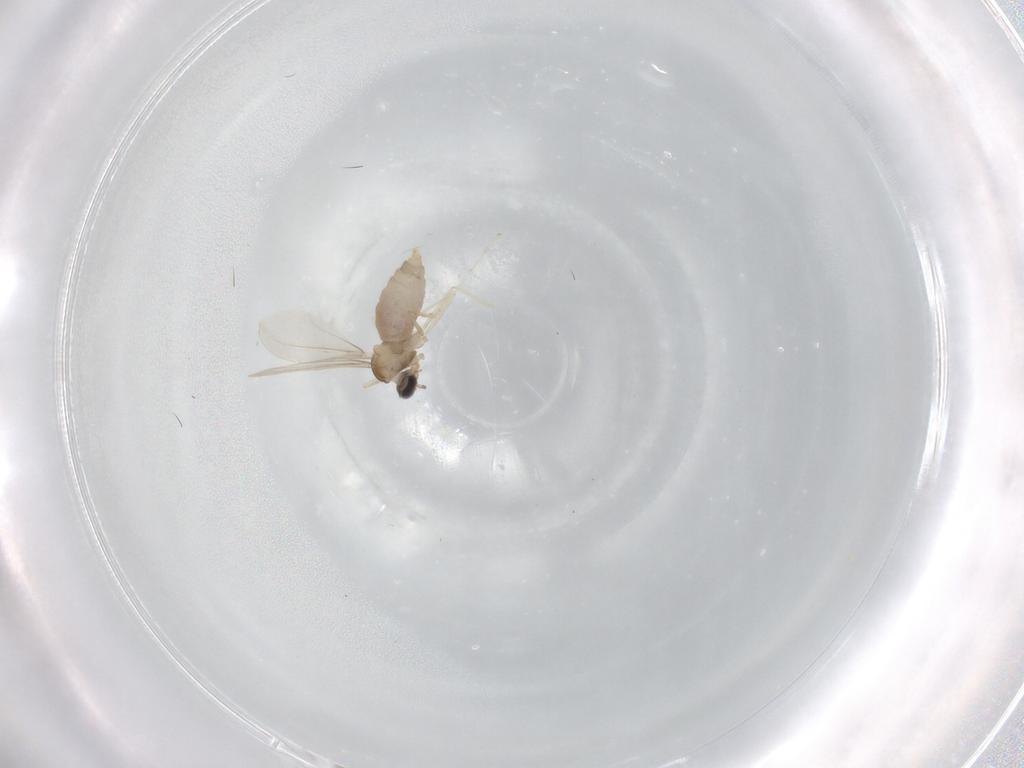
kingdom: Animalia
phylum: Arthropoda
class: Insecta
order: Diptera
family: Cecidomyiidae
